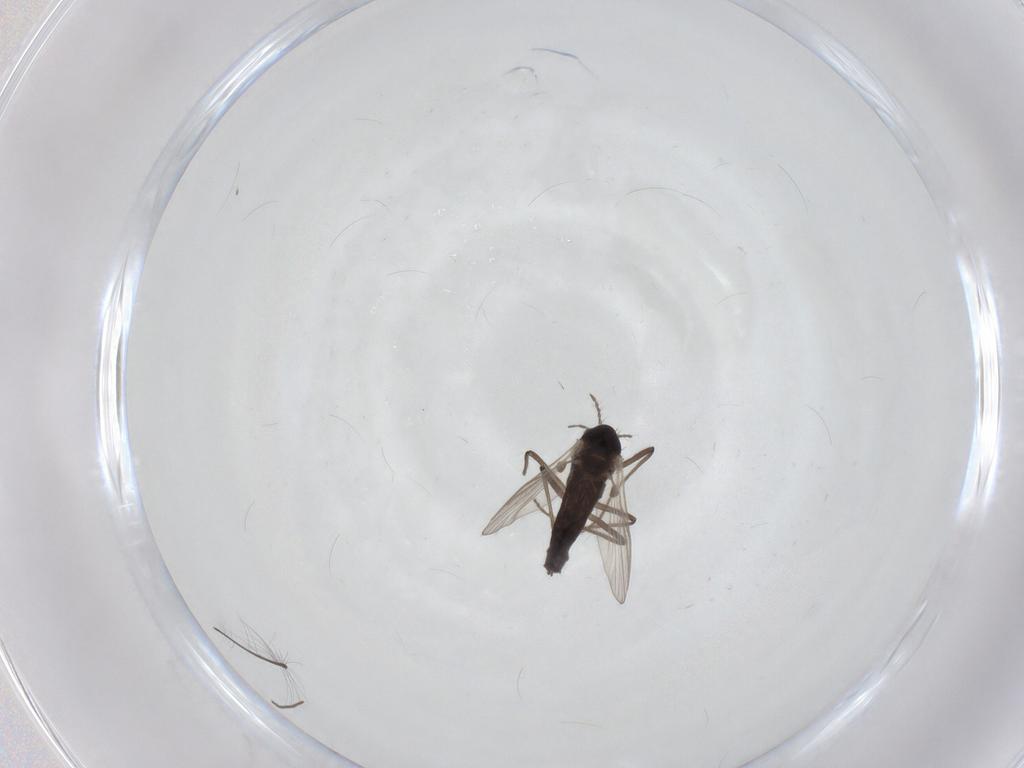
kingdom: Animalia
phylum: Arthropoda
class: Insecta
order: Diptera
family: Chironomidae
